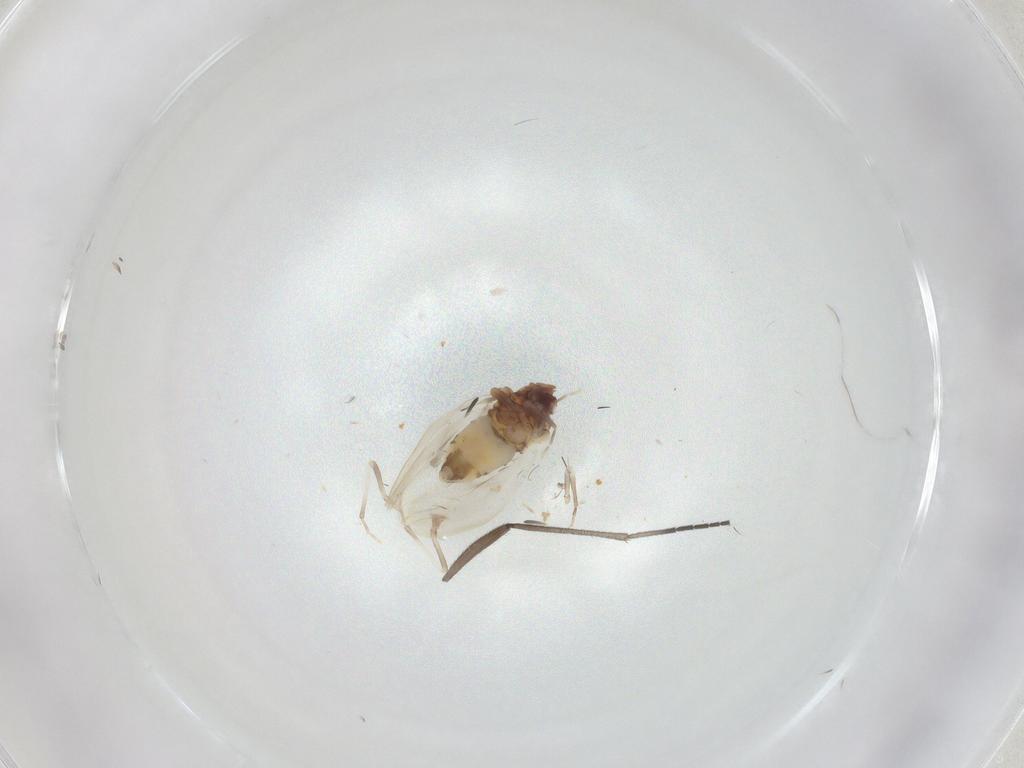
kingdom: Animalia
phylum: Arthropoda
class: Insecta
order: Hemiptera
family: Aleyrodidae
